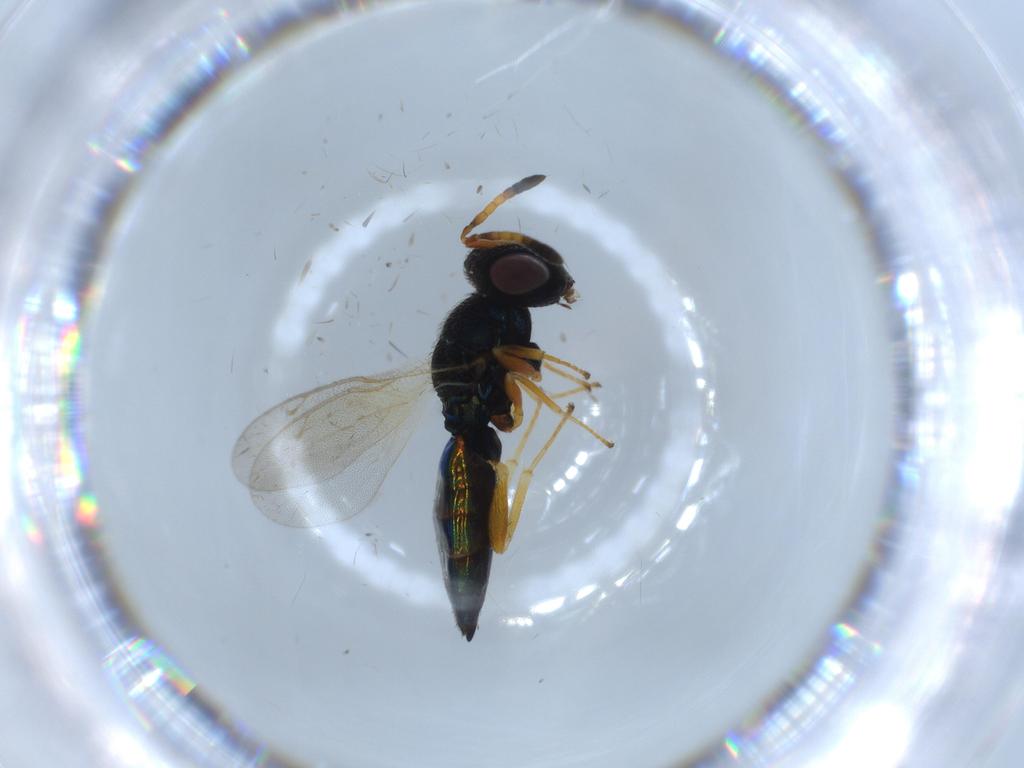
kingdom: Animalia
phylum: Arthropoda
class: Insecta
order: Hymenoptera
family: Pteromalidae
